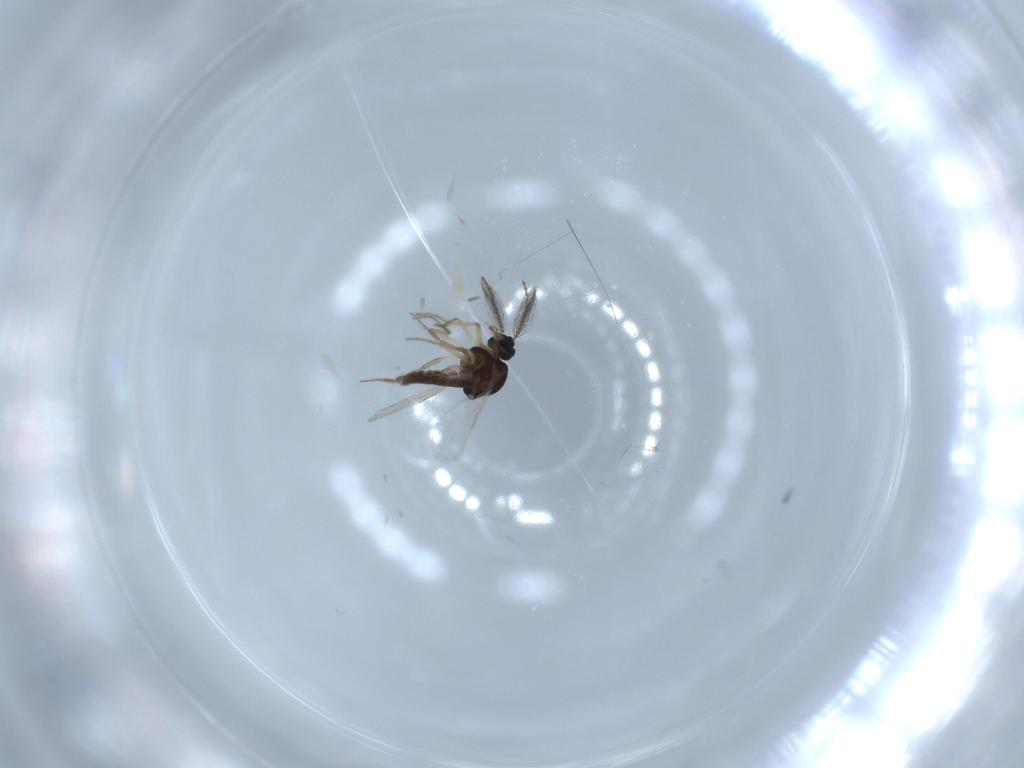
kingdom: Animalia
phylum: Arthropoda
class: Insecta
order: Diptera
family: Ceratopogonidae
